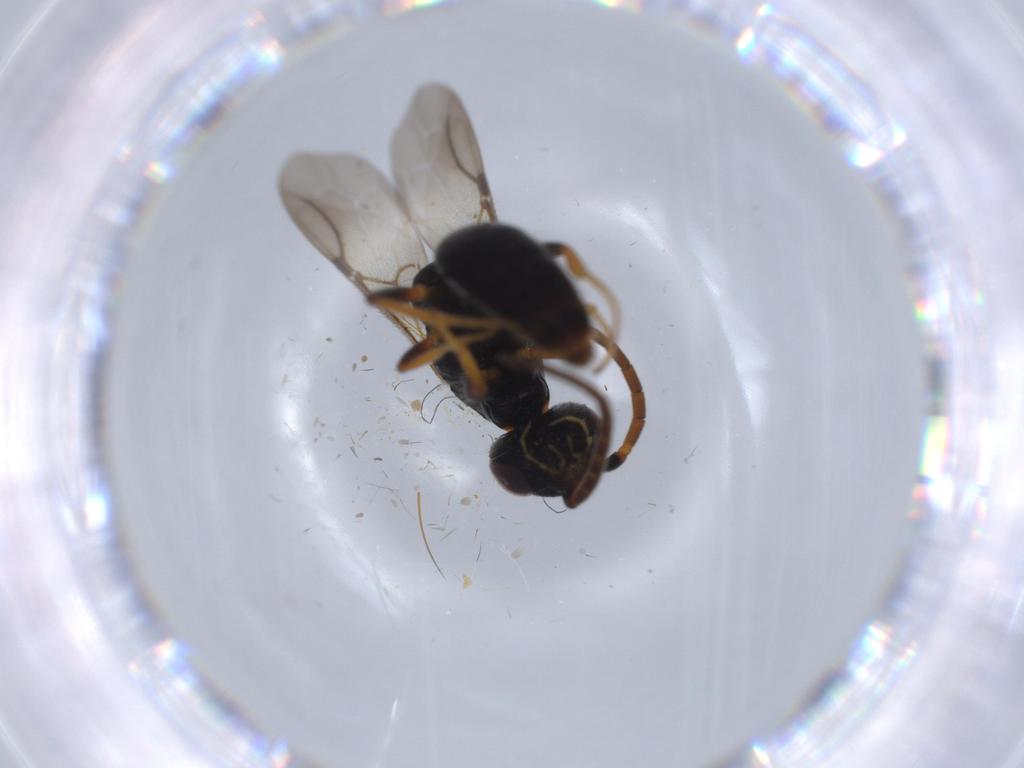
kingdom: Animalia
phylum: Arthropoda
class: Insecta
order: Hymenoptera
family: Bethylidae
